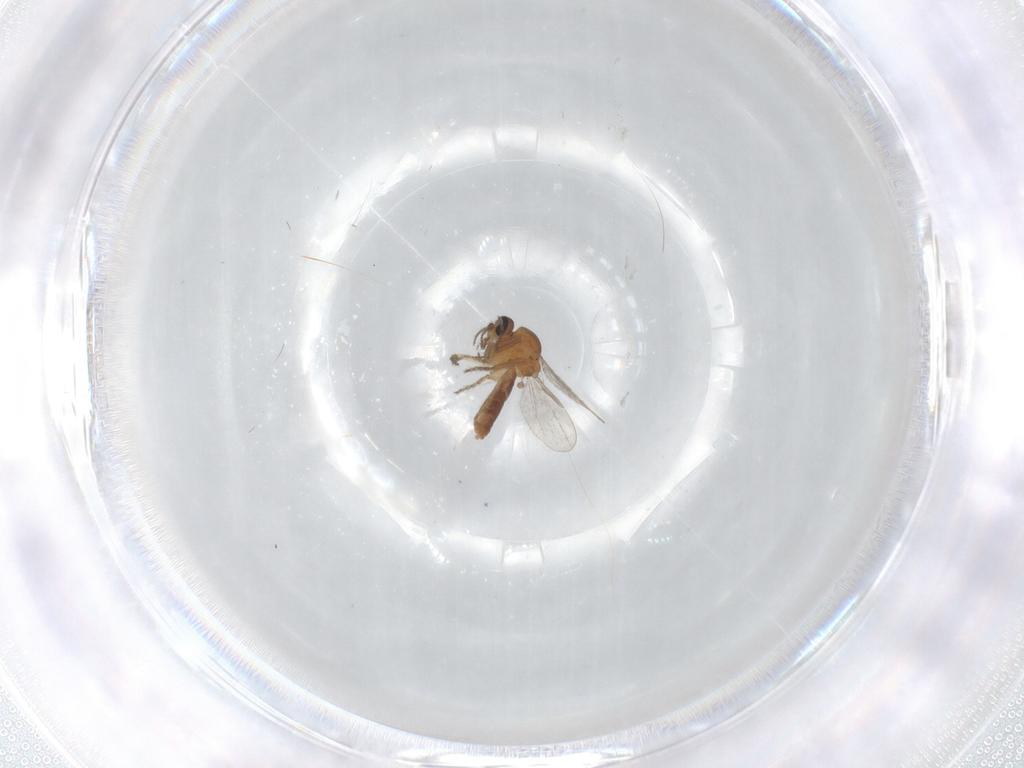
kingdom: Animalia
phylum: Arthropoda
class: Insecta
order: Diptera
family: Ceratopogonidae
